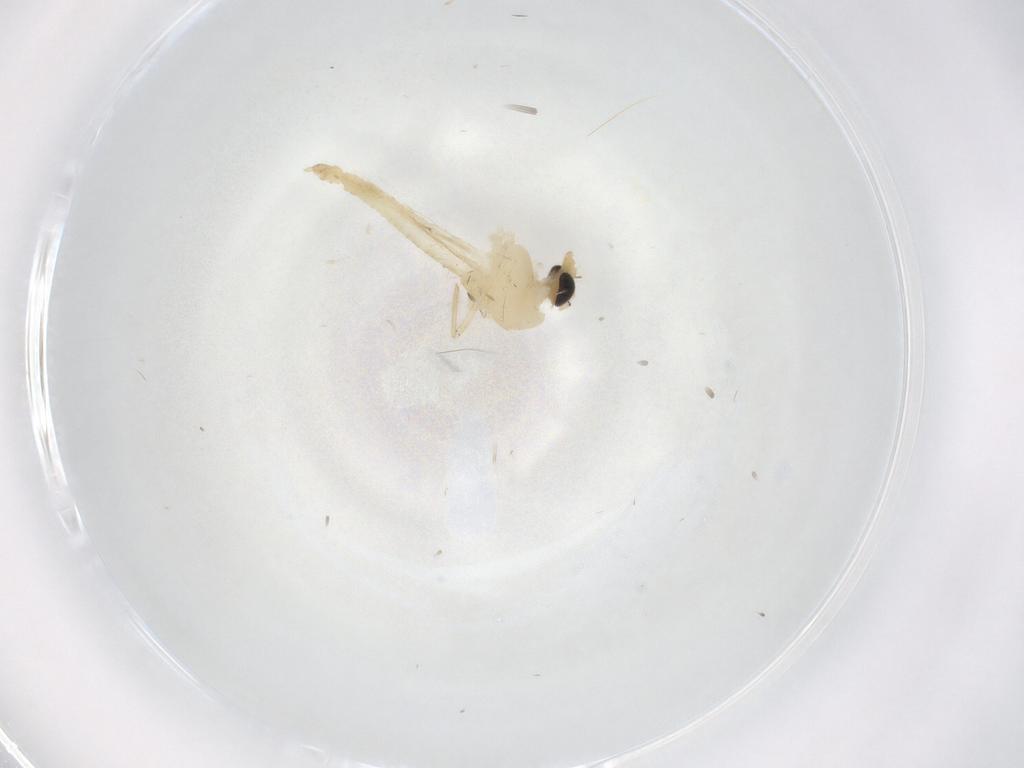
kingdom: Animalia
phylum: Arthropoda
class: Insecta
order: Diptera
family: Chironomidae
